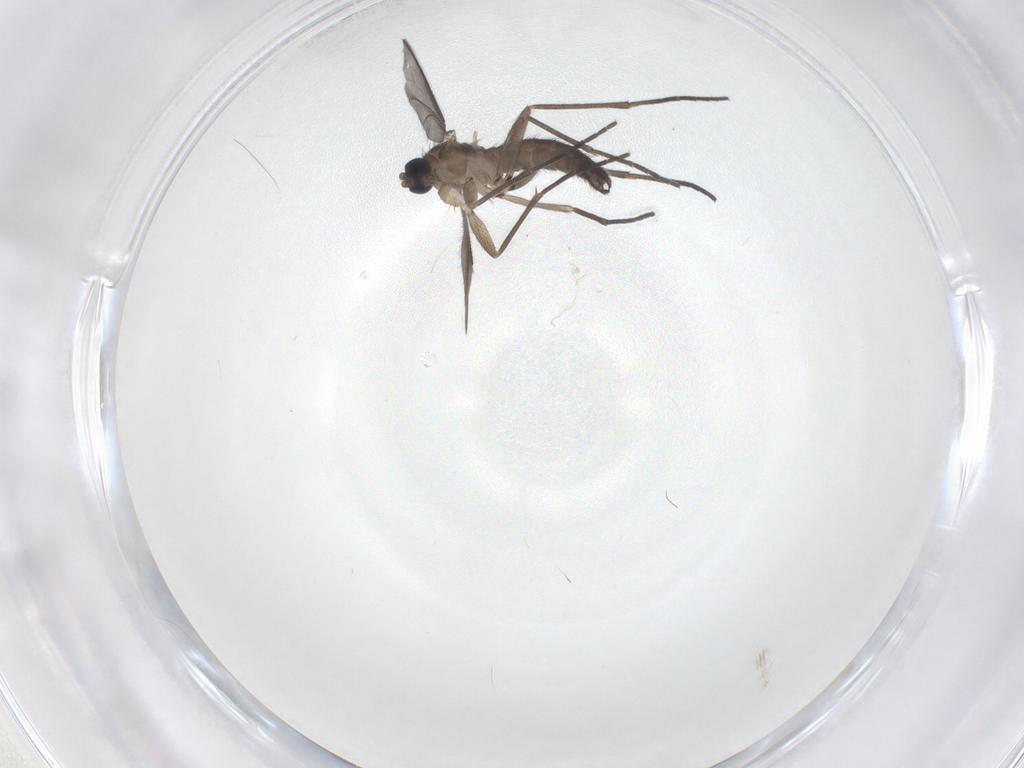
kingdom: Animalia
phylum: Arthropoda
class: Insecta
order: Diptera
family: Sciaridae
